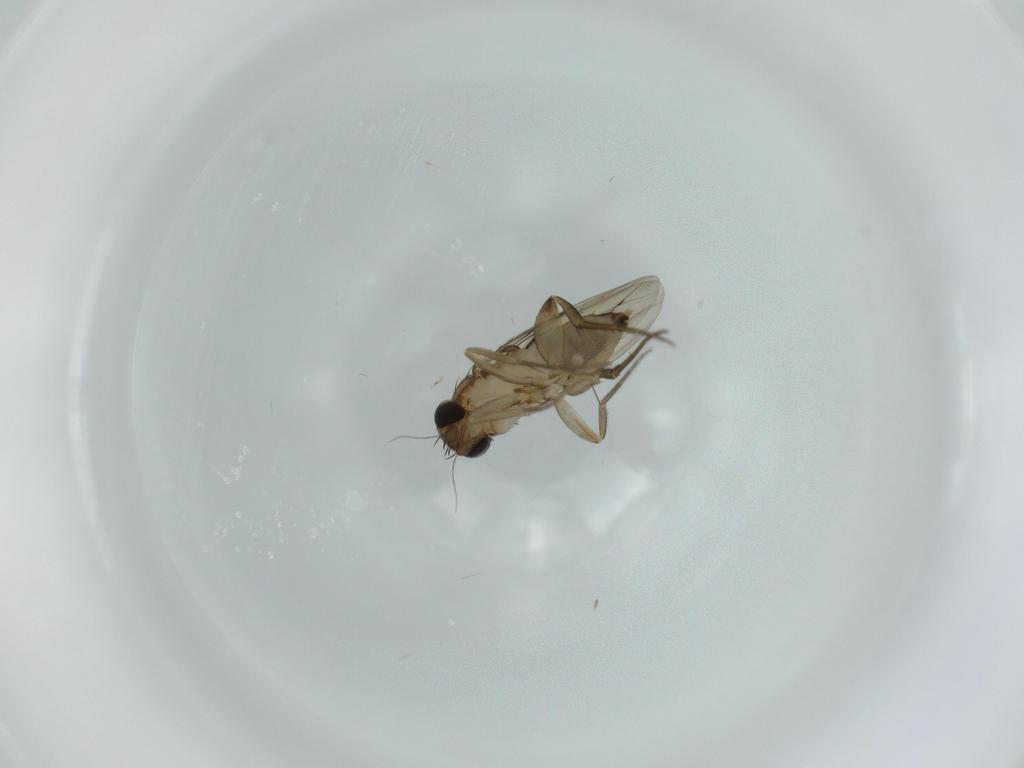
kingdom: Animalia
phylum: Arthropoda
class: Insecta
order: Diptera
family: Phoridae
